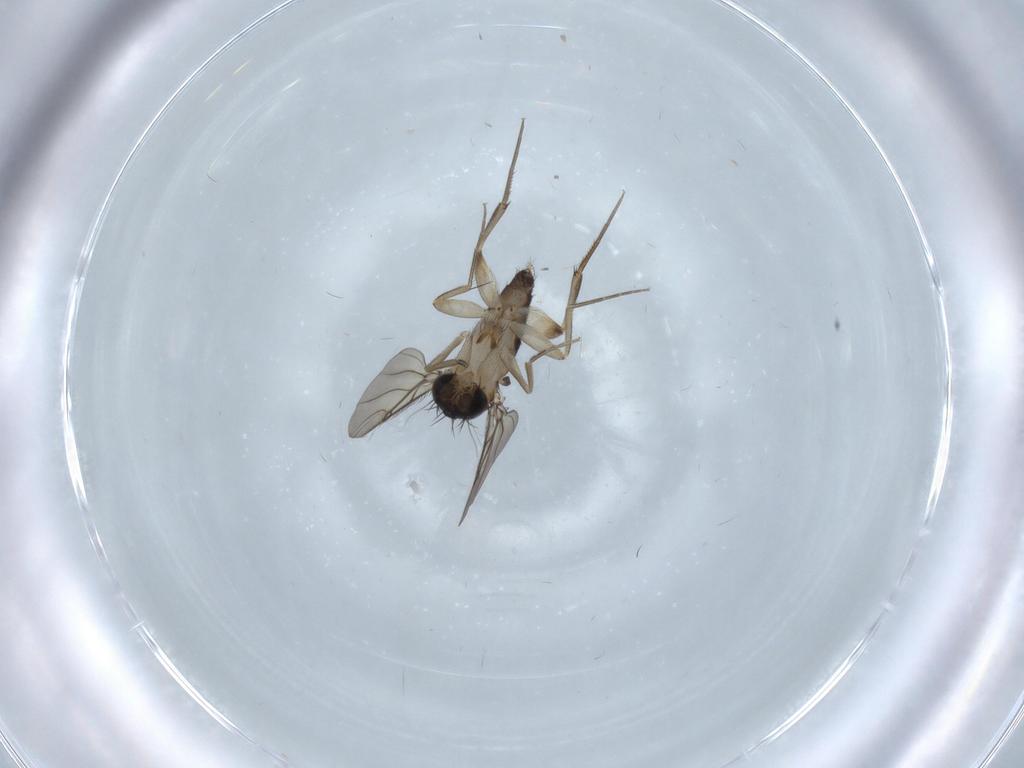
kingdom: Animalia
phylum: Arthropoda
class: Insecta
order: Diptera
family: Phoridae
